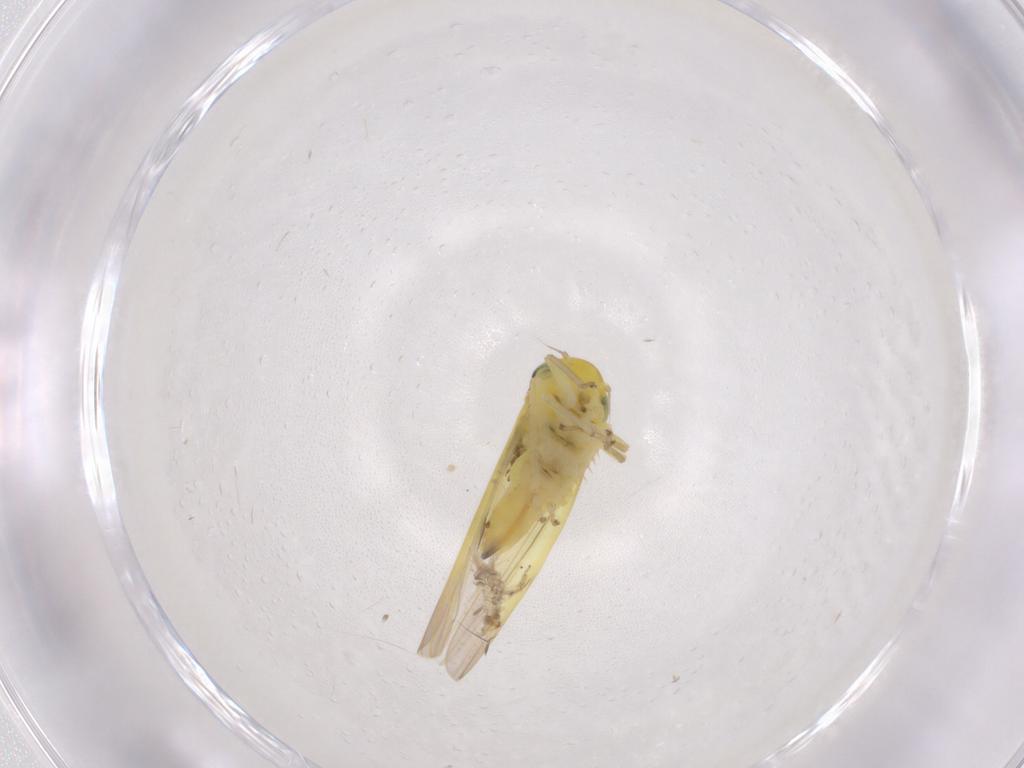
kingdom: Animalia
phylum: Arthropoda
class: Insecta
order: Hemiptera
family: Cicadellidae
